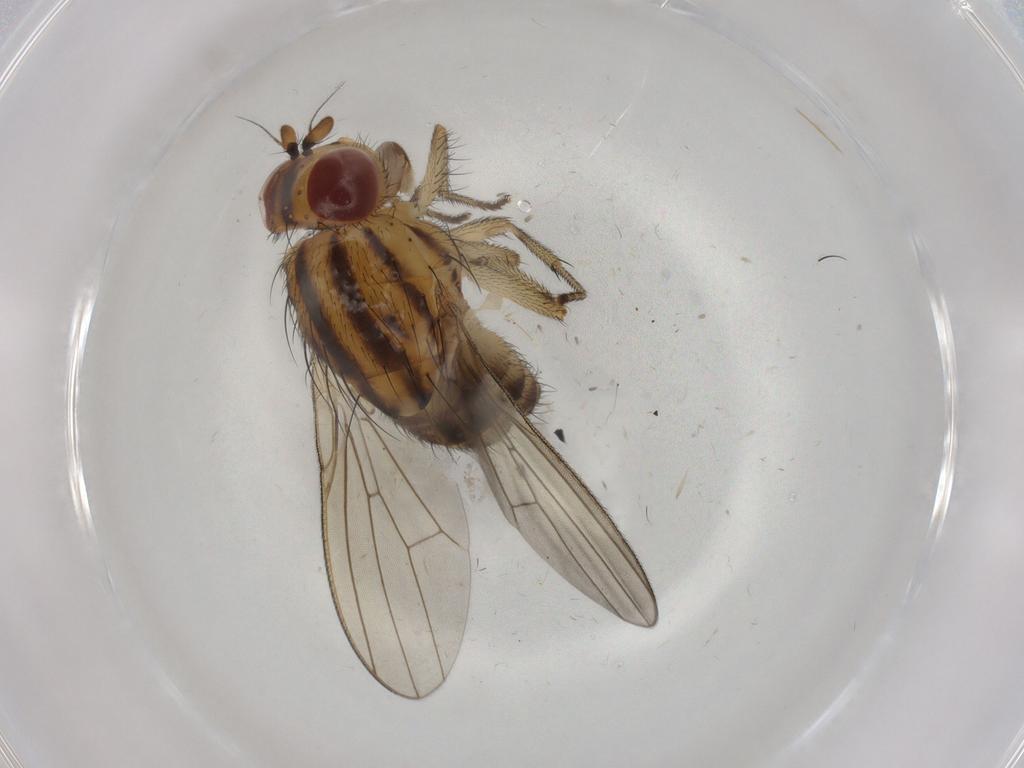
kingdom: Animalia
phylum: Arthropoda
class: Insecta
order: Diptera
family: Chironomidae
